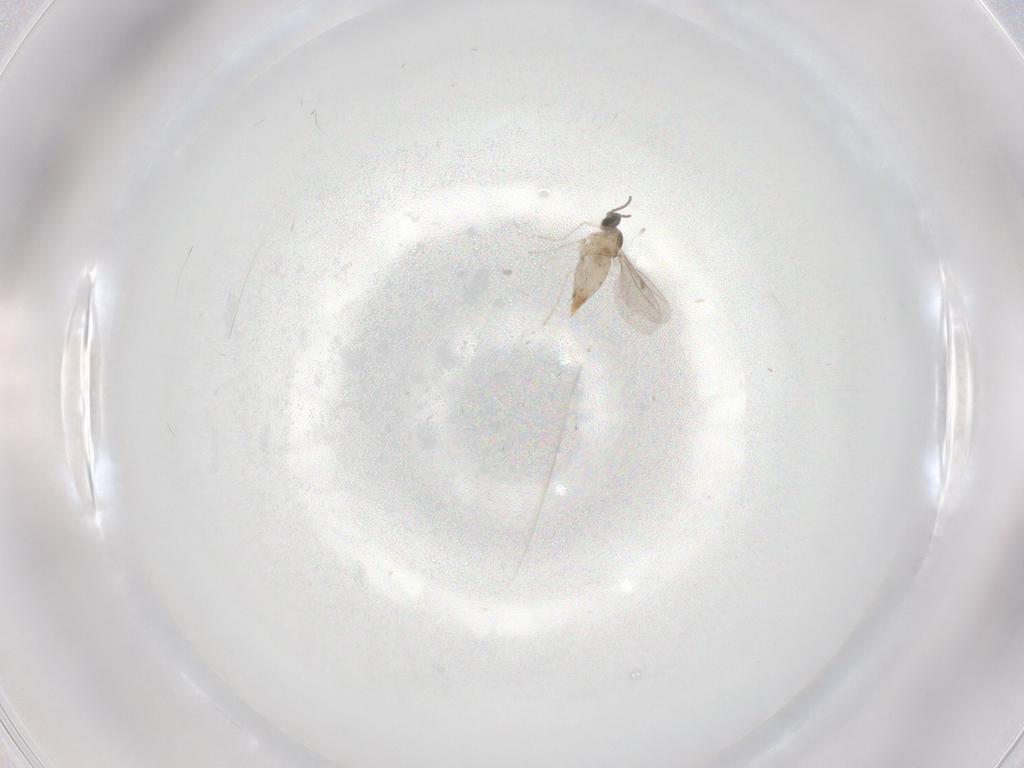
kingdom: Animalia
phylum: Arthropoda
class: Insecta
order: Diptera
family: Cecidomyiidae
